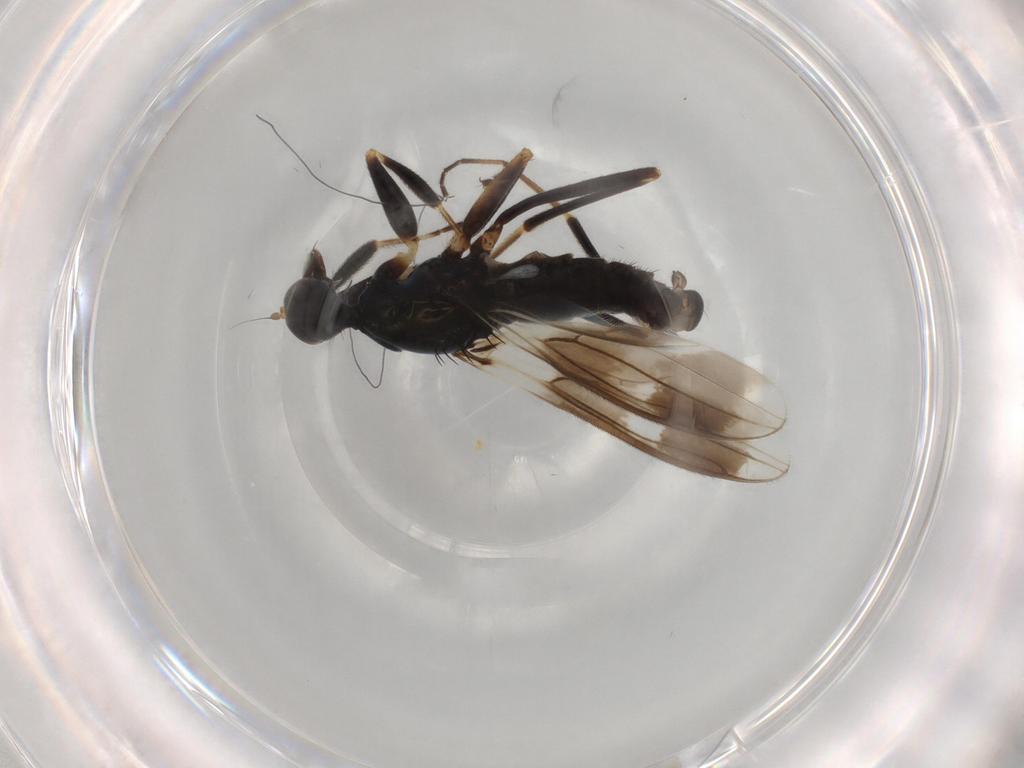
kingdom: Animalia
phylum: Arthropoda
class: Insecta
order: Diptera
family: Hybotidae
